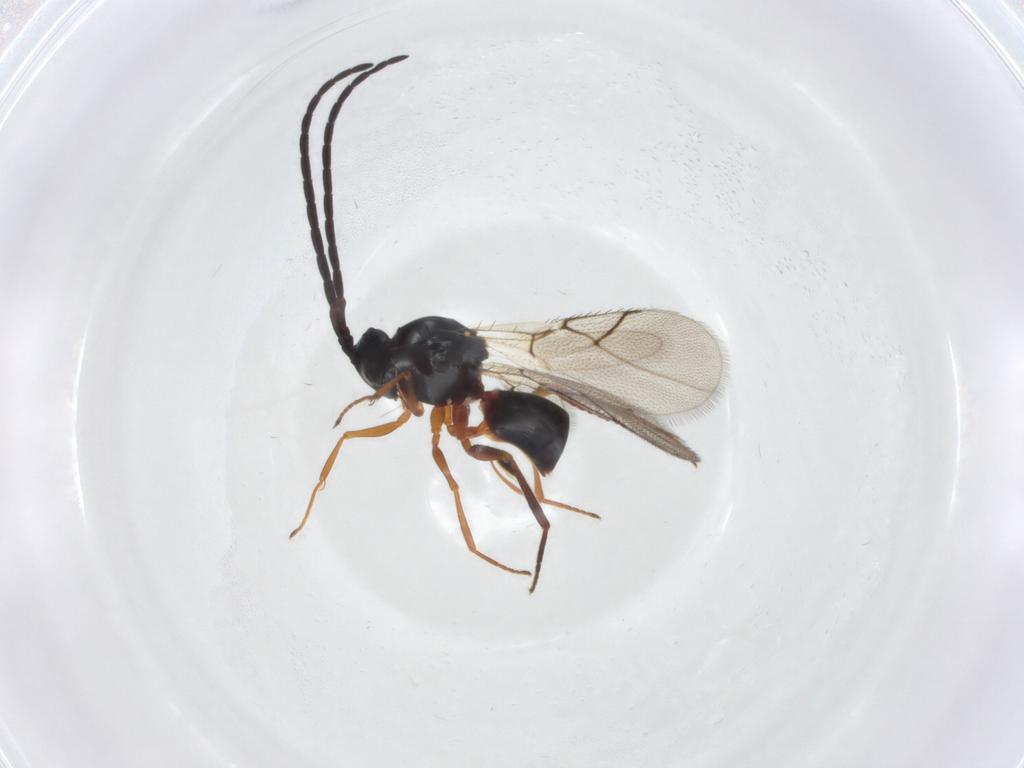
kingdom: Animalia
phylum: Arthropoda
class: Insecta
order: Hymenoptera
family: Figitidae
